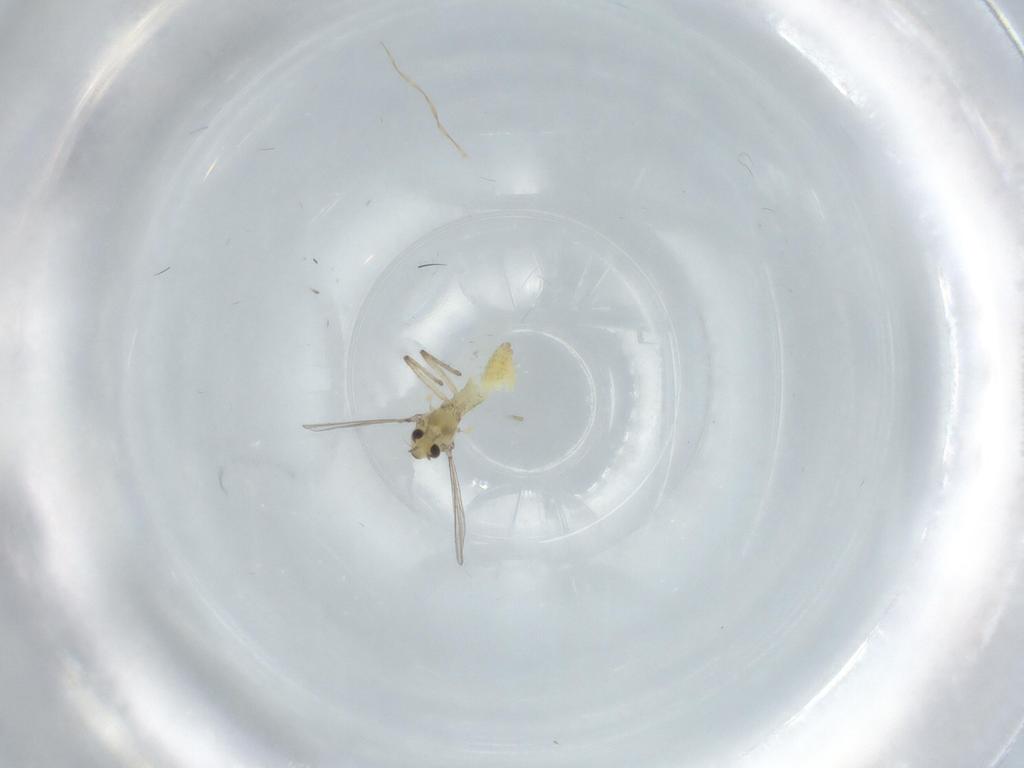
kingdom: Animalia
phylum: Arthropoda
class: Insecta
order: Diptera
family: Chironomidae
